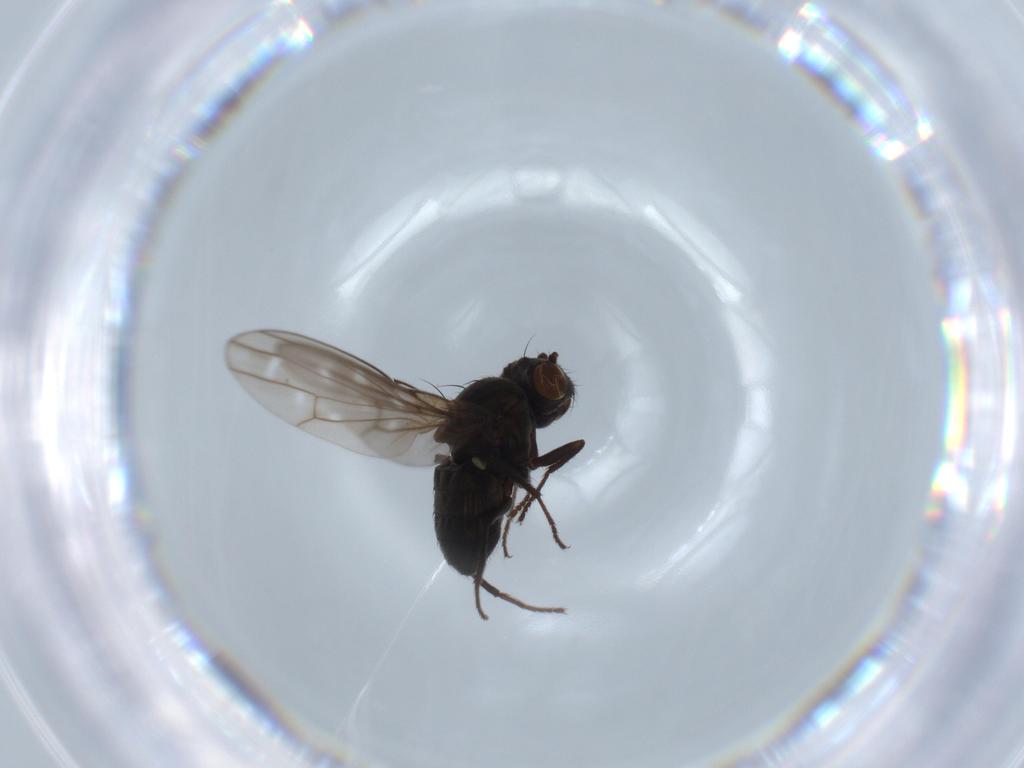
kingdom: Animalia
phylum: Arthropoda
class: Insecta
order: Diptera
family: Ephydridae
